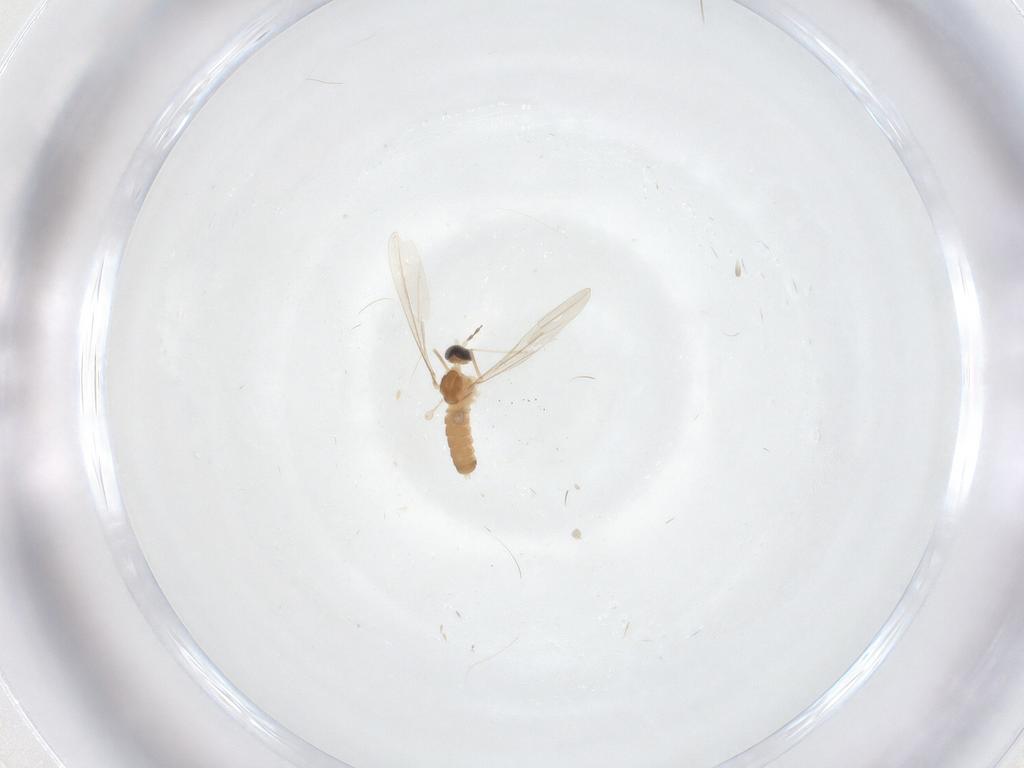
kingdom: Animalia
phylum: Arthropoda
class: Insecta
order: Diptera
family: Cecidomyiidae
